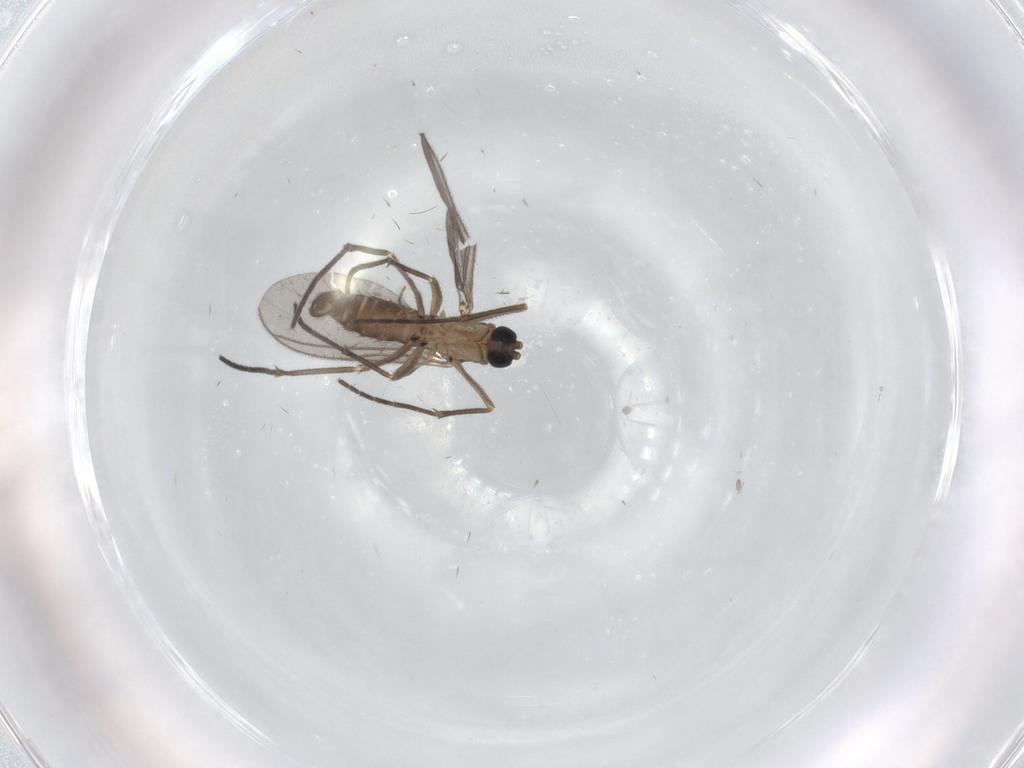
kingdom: Animalia
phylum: Arthropoda
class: Insecta
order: Diptera
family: Sciaridae
